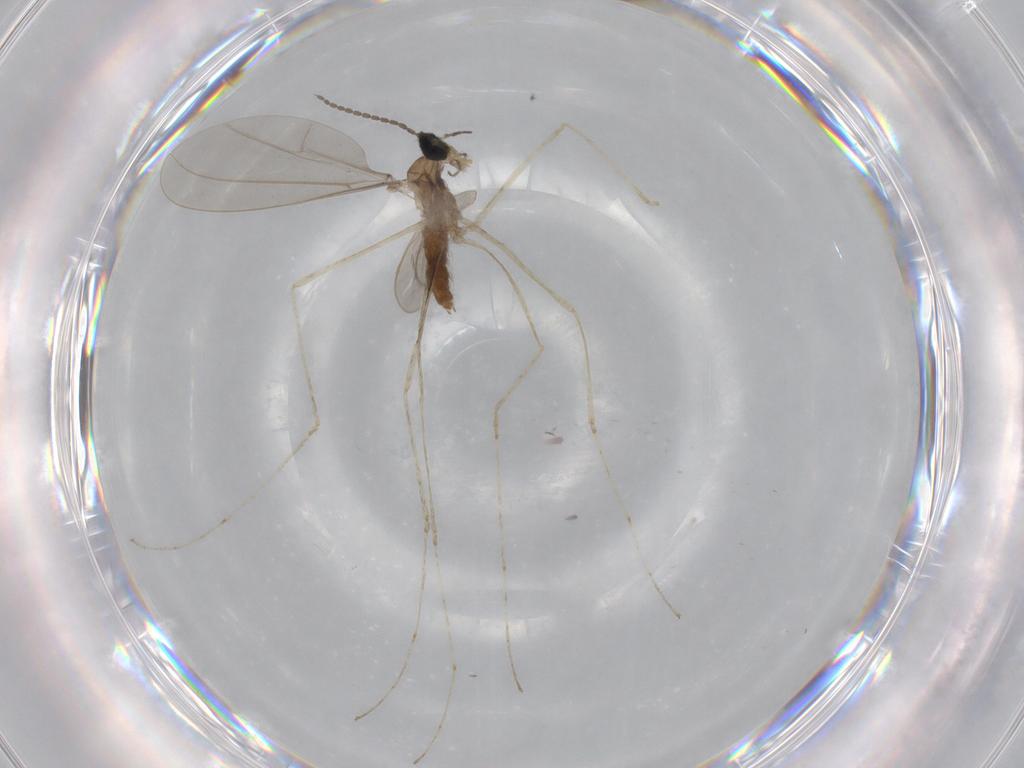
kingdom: Animalia
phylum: Arthropoda
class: Insecta
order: Diptera
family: Cecidomyiidae
